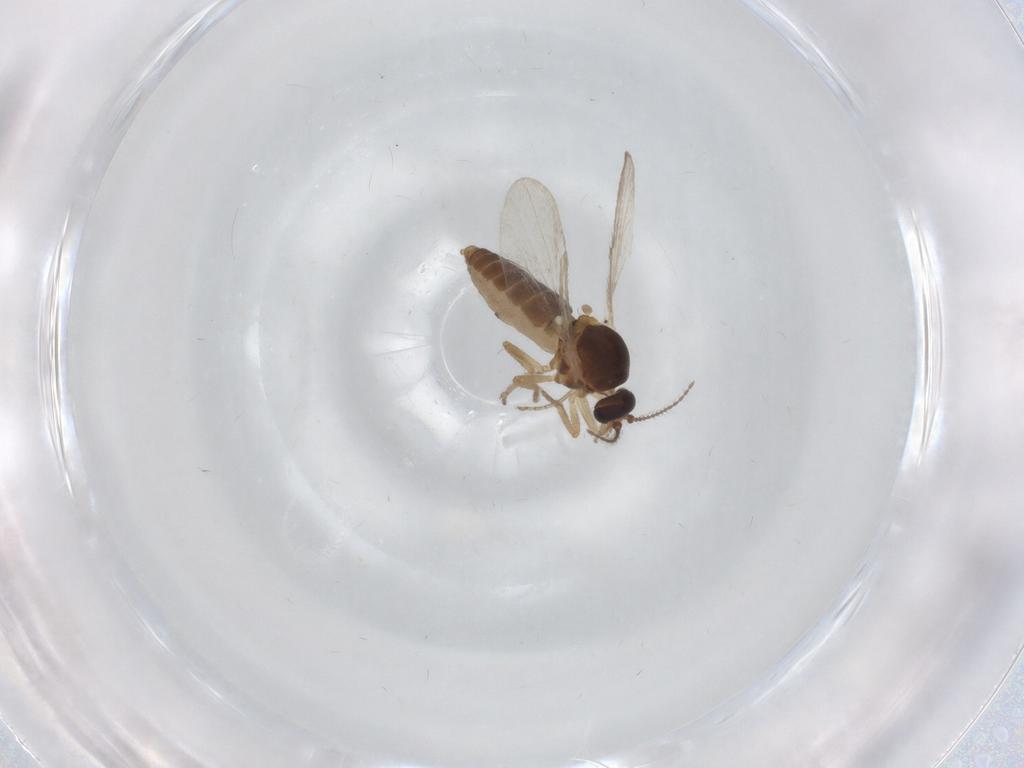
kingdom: Animalia
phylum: Arthropoda
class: Insecta
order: Diptera
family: Ceratopogonidae
